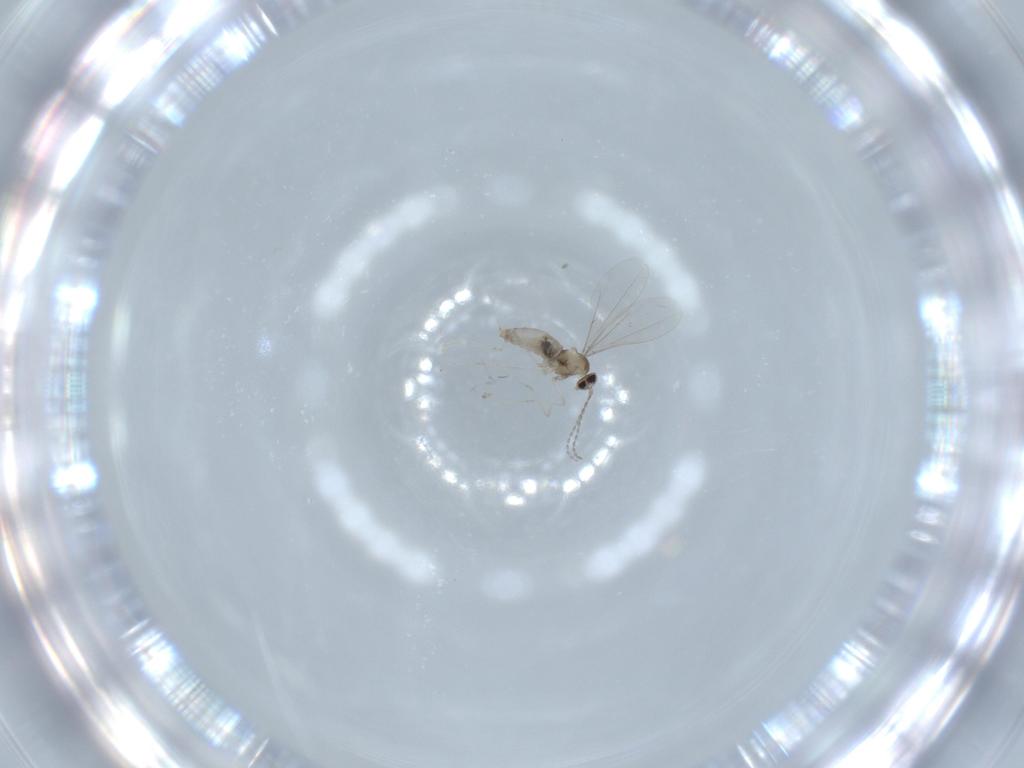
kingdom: Animalia
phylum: Arthropoda
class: Insecta
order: Diptera
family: Cecidomyiidae
